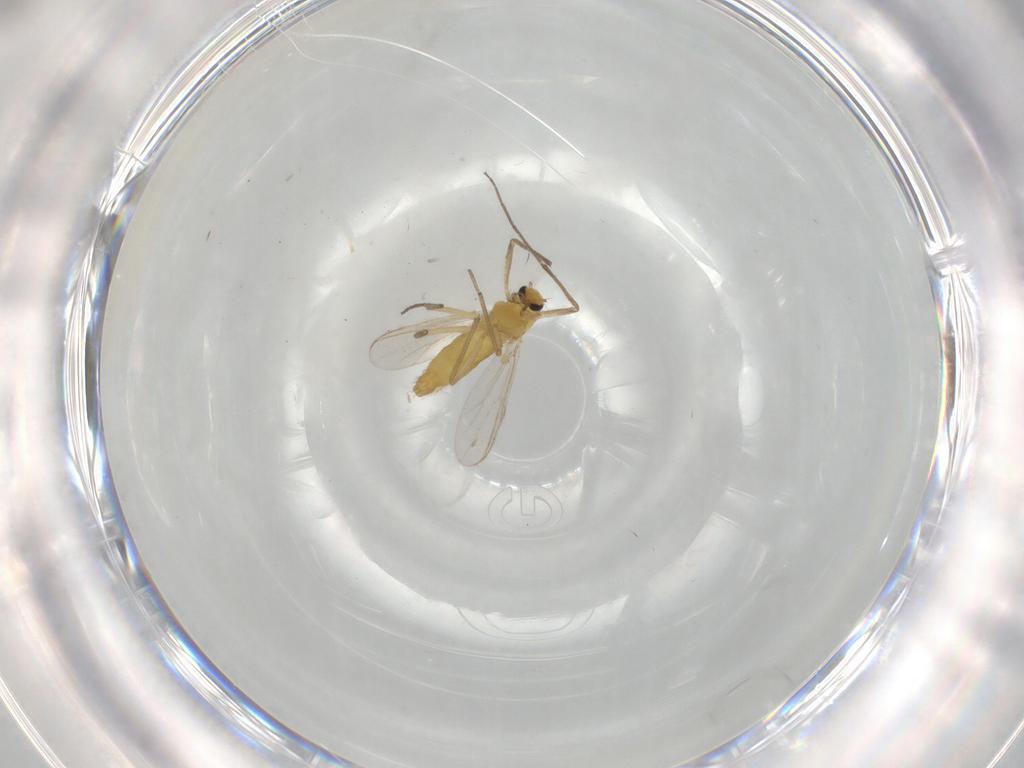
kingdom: Animalia
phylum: Arthropoda
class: Insecta
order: Diptera
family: Chironomidae
